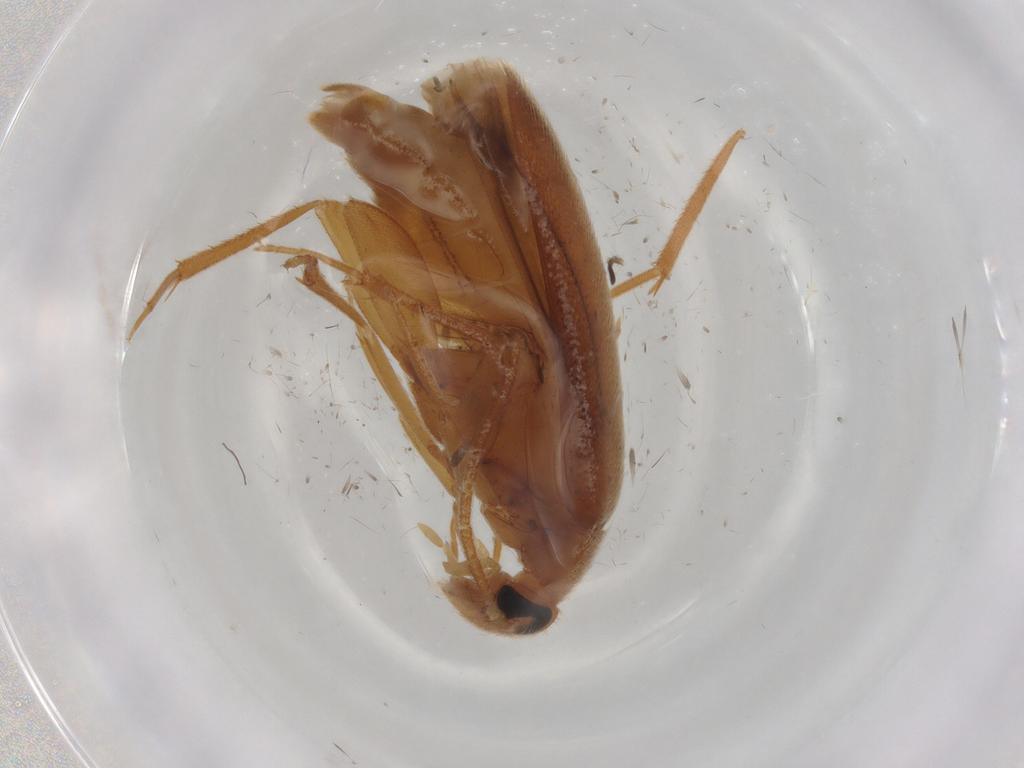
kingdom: Animalia
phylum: Arthropoda
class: Insecta
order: Coleoptera
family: Scraptiidae
